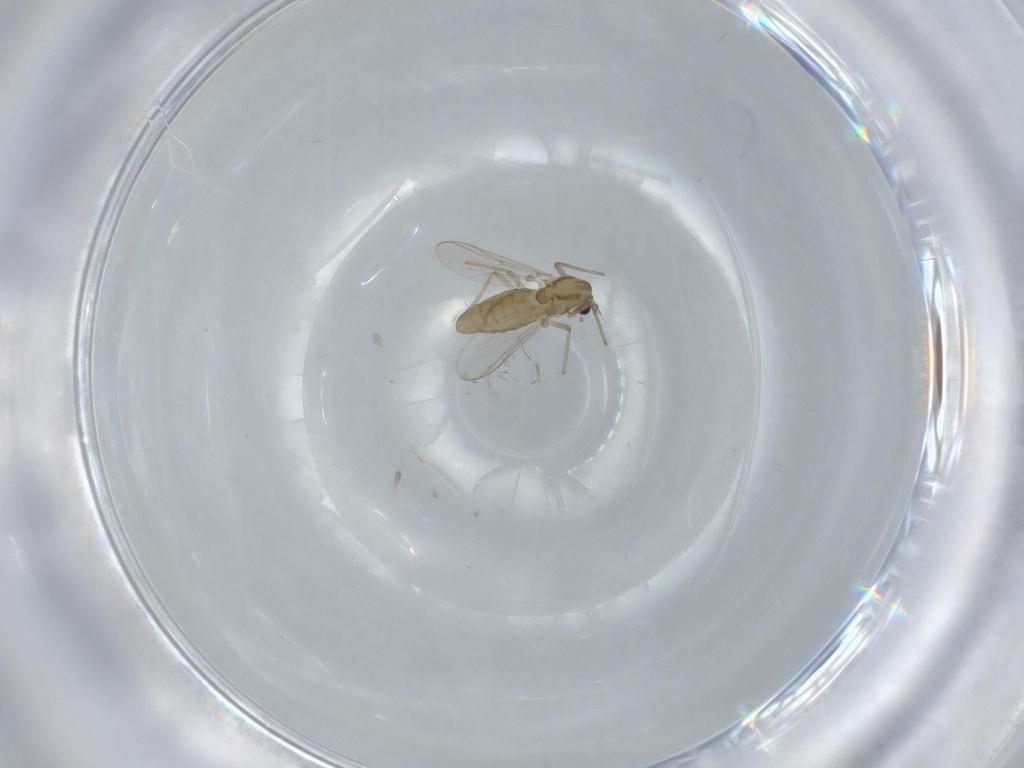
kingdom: Animalia
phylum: Arthropoda
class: Insecta
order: Diptera
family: Chironomidae
